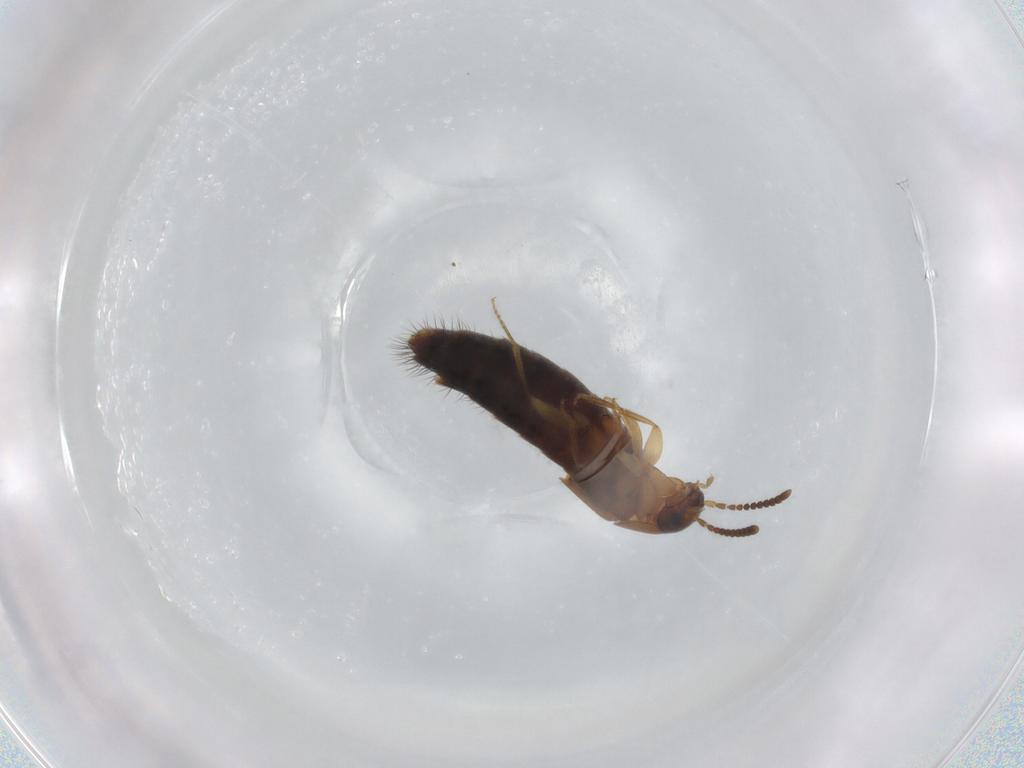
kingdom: Animalia
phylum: Arthropoda
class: Insecta
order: Coleoptera
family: Staphylinidae
